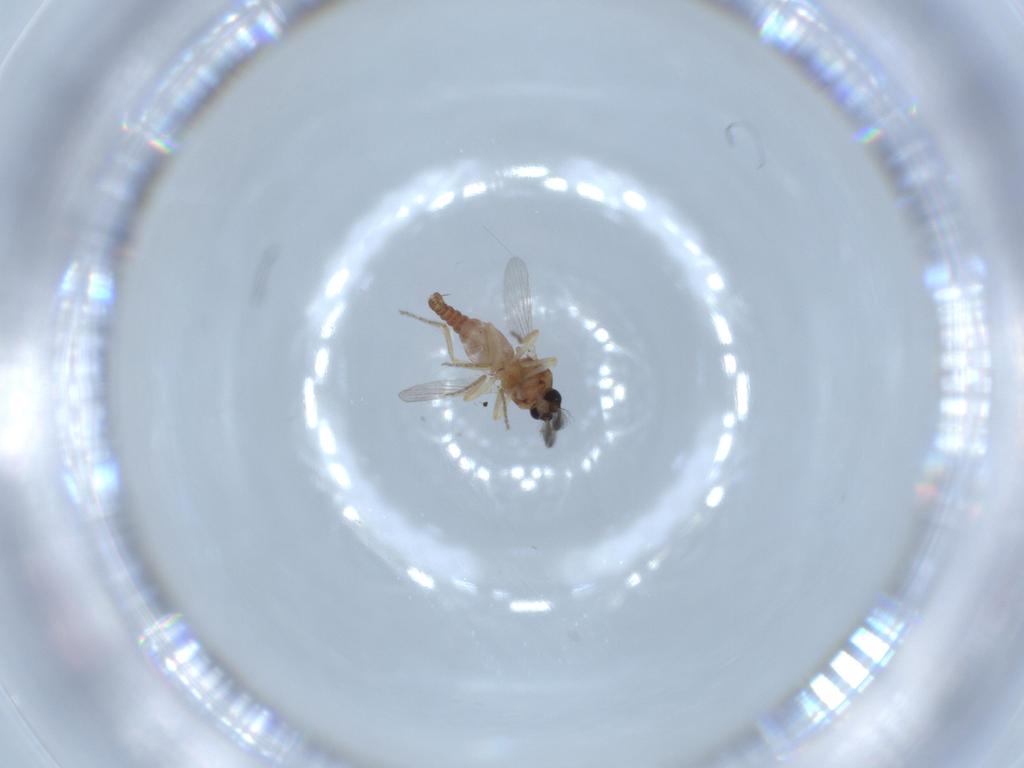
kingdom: Animalia
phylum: Arthropoda
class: Insecta
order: Diptera
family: Ceratopogonidae
